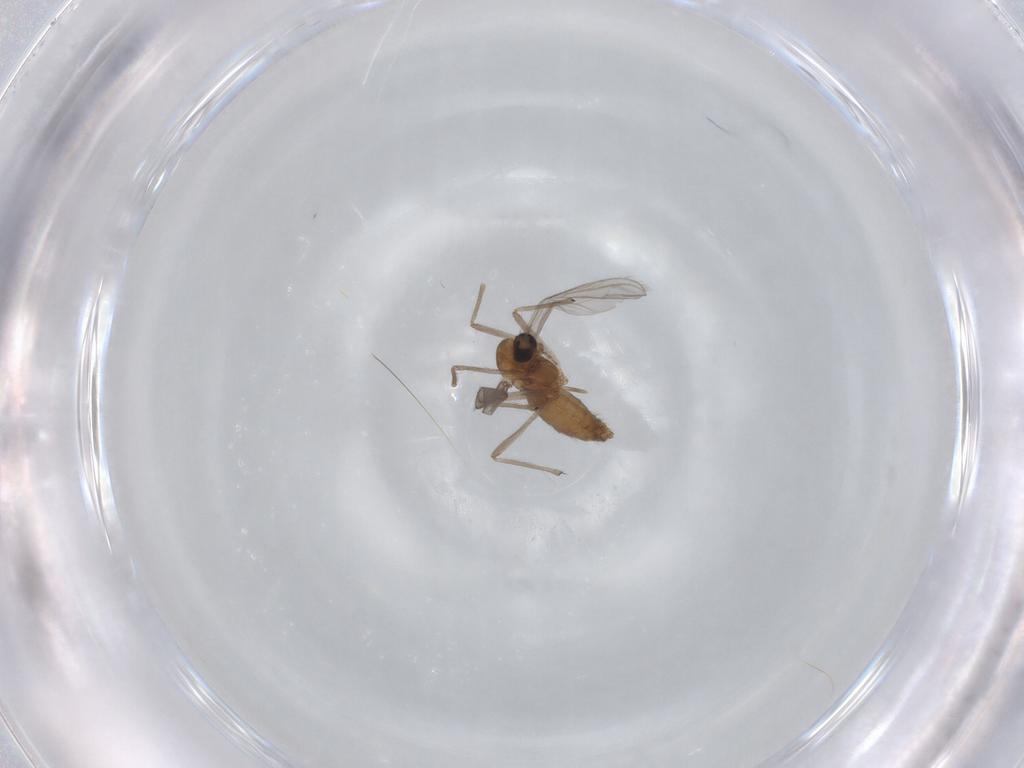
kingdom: Animalia
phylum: Arthropoda
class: Insecta
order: Diptera
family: Chironomidae
